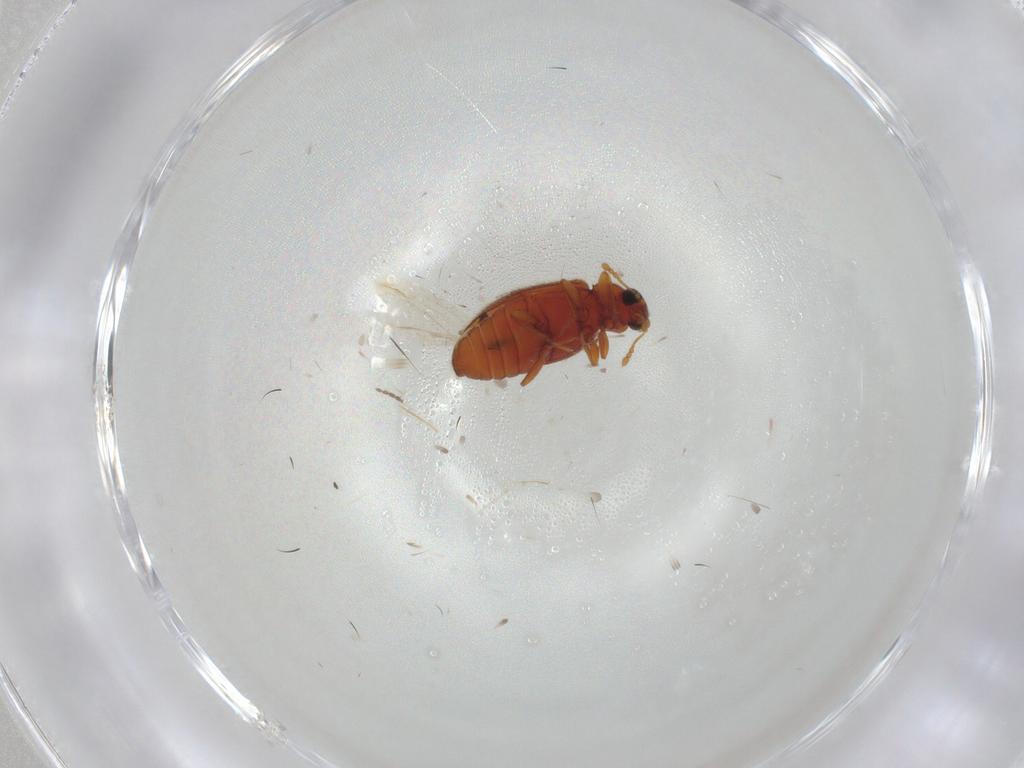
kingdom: Animalia
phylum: Arthropoda
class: Insecta
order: Coleoptera
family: Latridiidae
